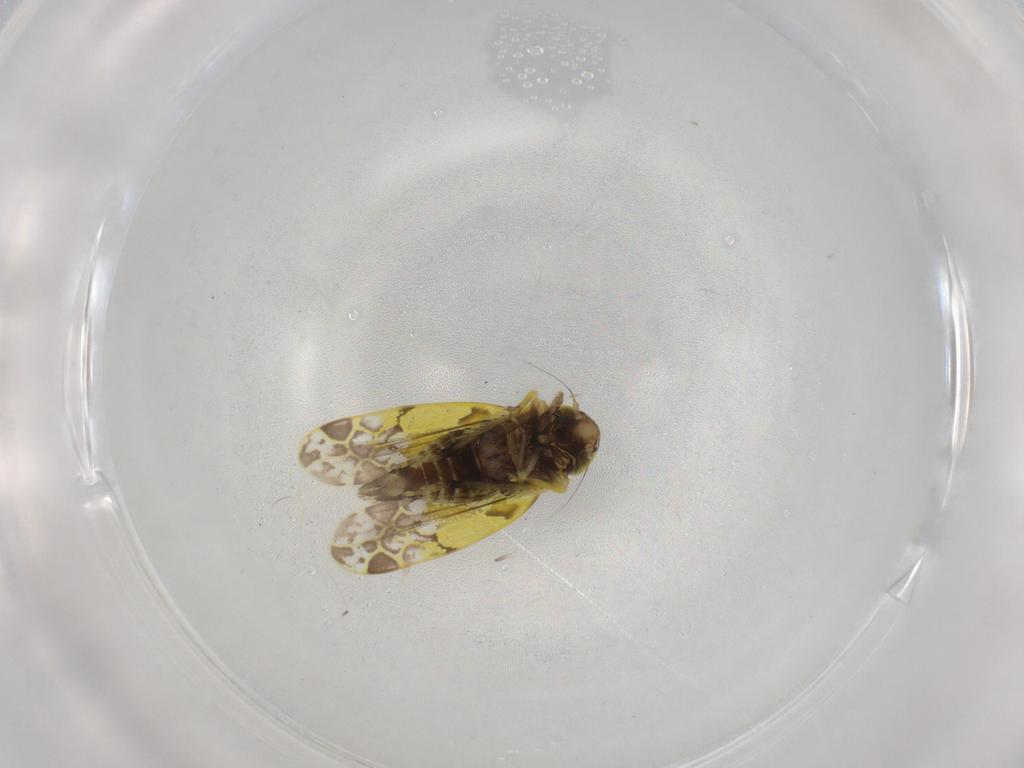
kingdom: Animalia
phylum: Arthropoda
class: Insecta
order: Hemiptera
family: Cicadellidae
